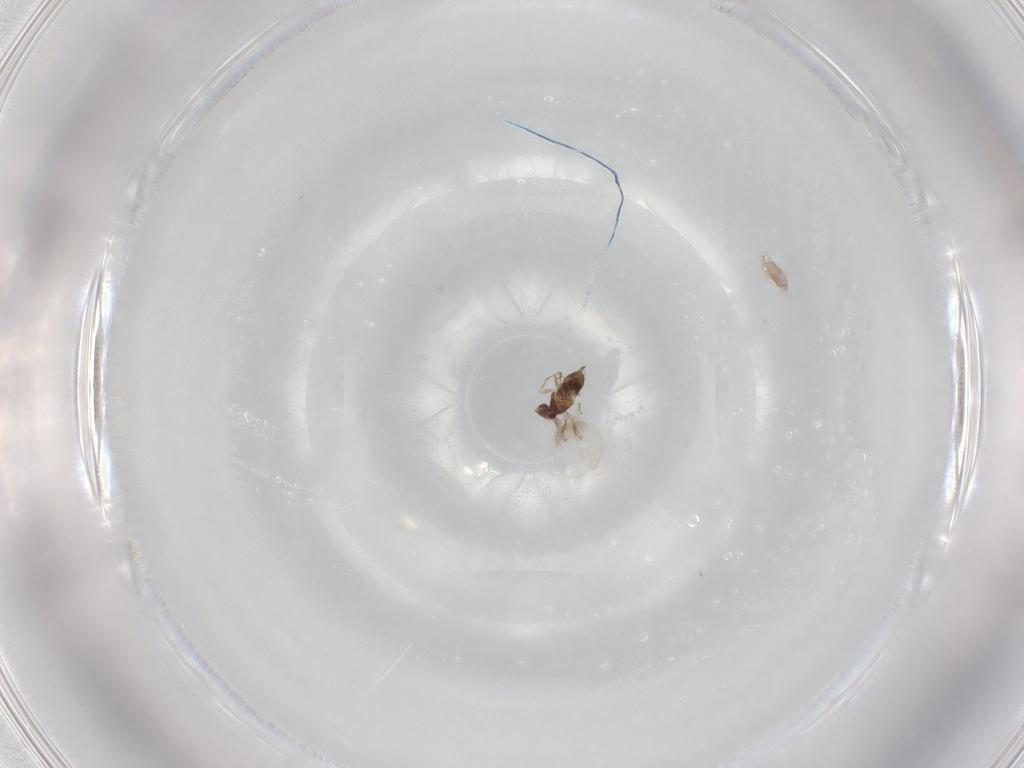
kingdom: Animalia
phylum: Arthropoda
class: Insecta
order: Hymenoptera
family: Trichogrammatidae
